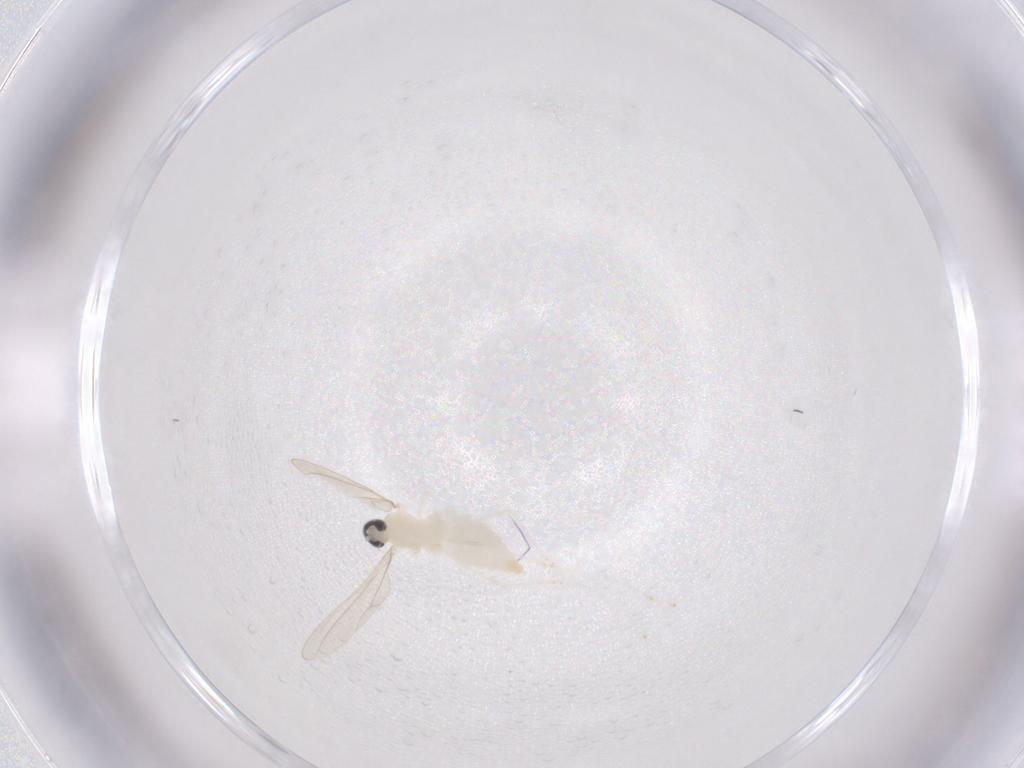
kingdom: Animalia
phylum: Arthropoda
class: Insecta
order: Diptera
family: Cecidomyiidae
